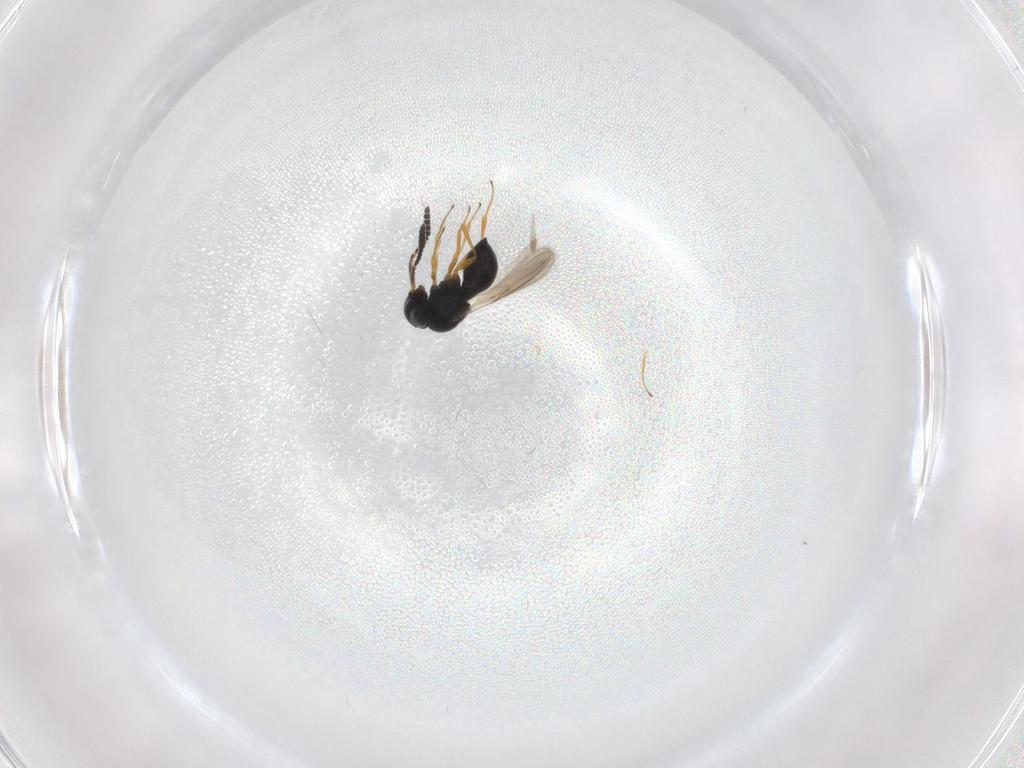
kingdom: Animalia
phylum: Arthropoda
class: Insecta
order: Hymenoptera
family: Scelionidae
